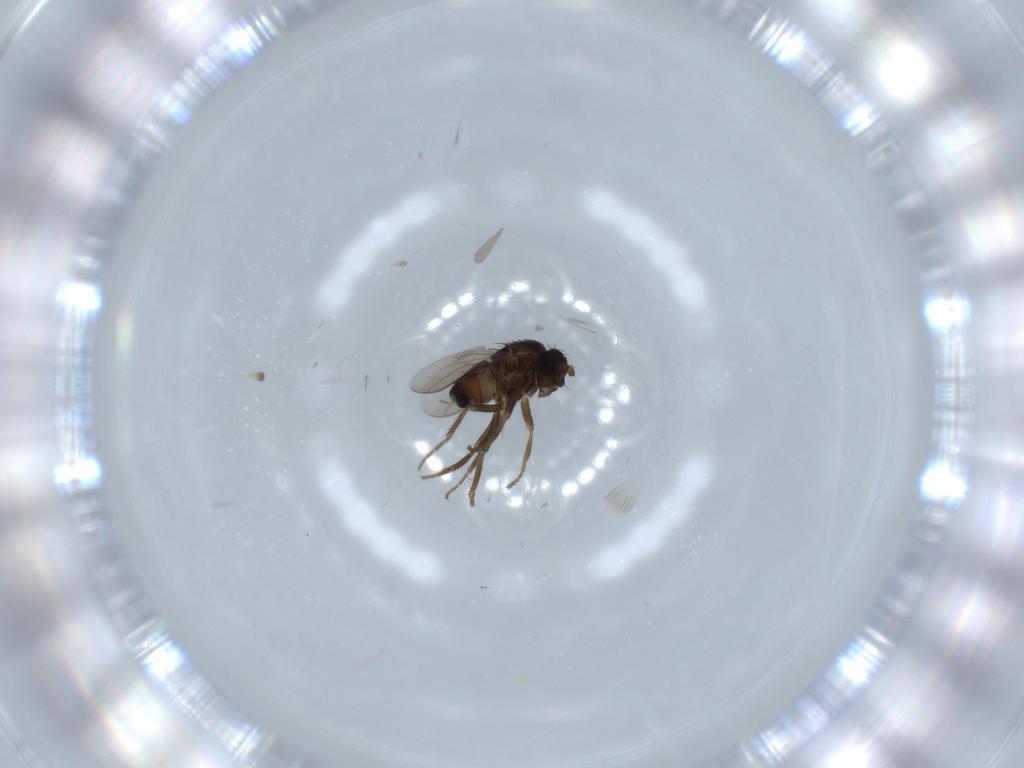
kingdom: Animalia
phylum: Arthropoda
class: Insecta
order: Diptera
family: Sphaeroceridae
